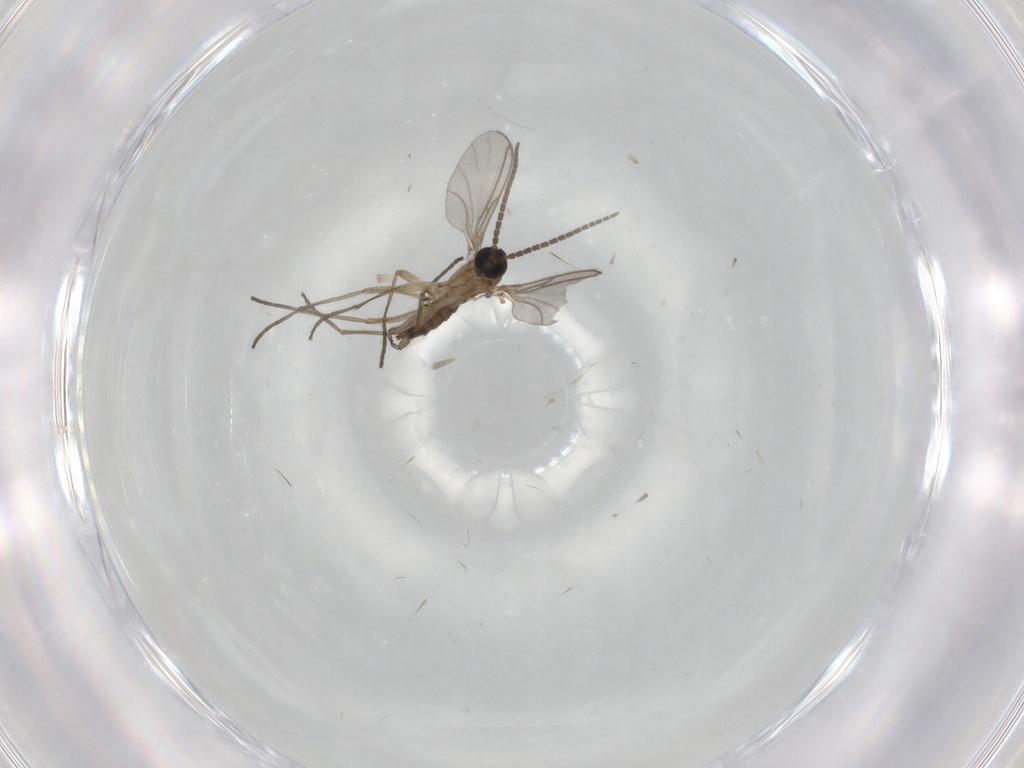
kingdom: Animalia
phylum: Arthropoda
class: Insecta
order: Diptera
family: Sciaridae
